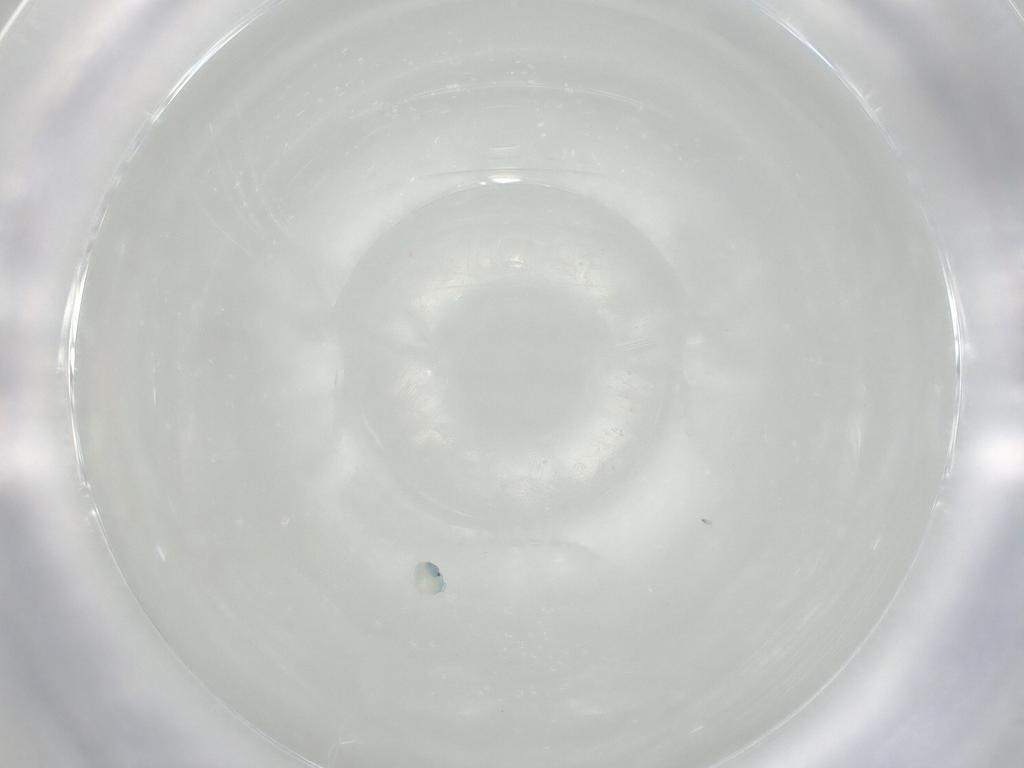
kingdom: Animalia
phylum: Arthropoda
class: Arachnida
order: Trombidiformes
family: Arrenuridae
